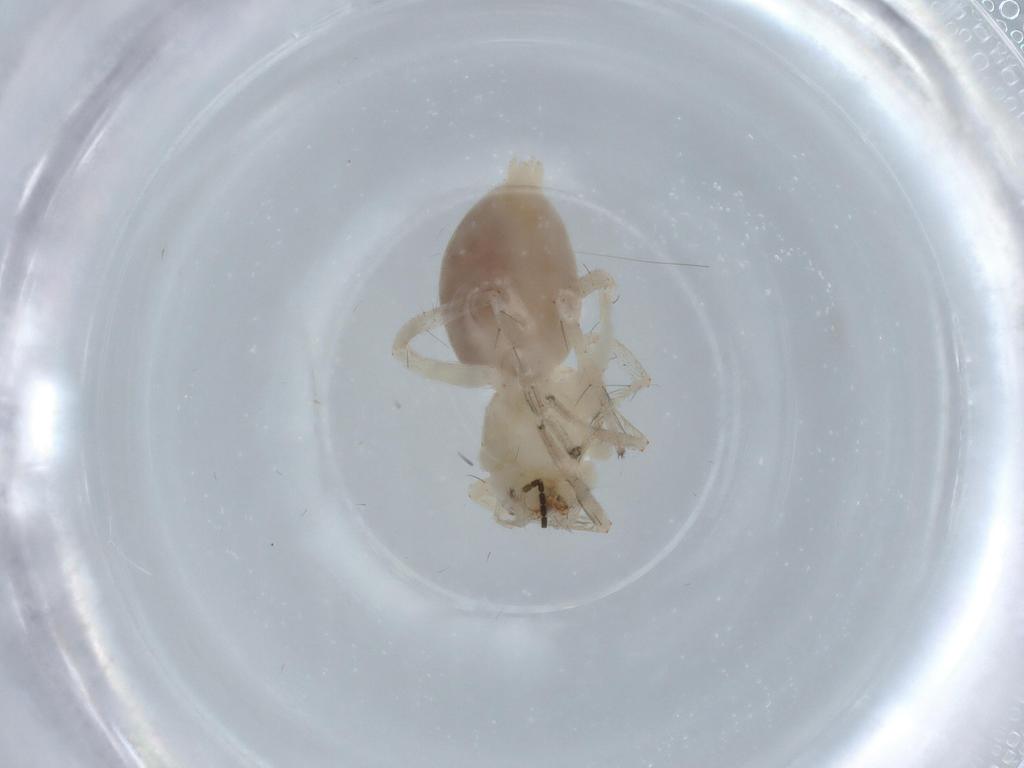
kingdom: Animalia
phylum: Arthropoda
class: Arachnida
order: Araneae
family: Anyphaenidae
